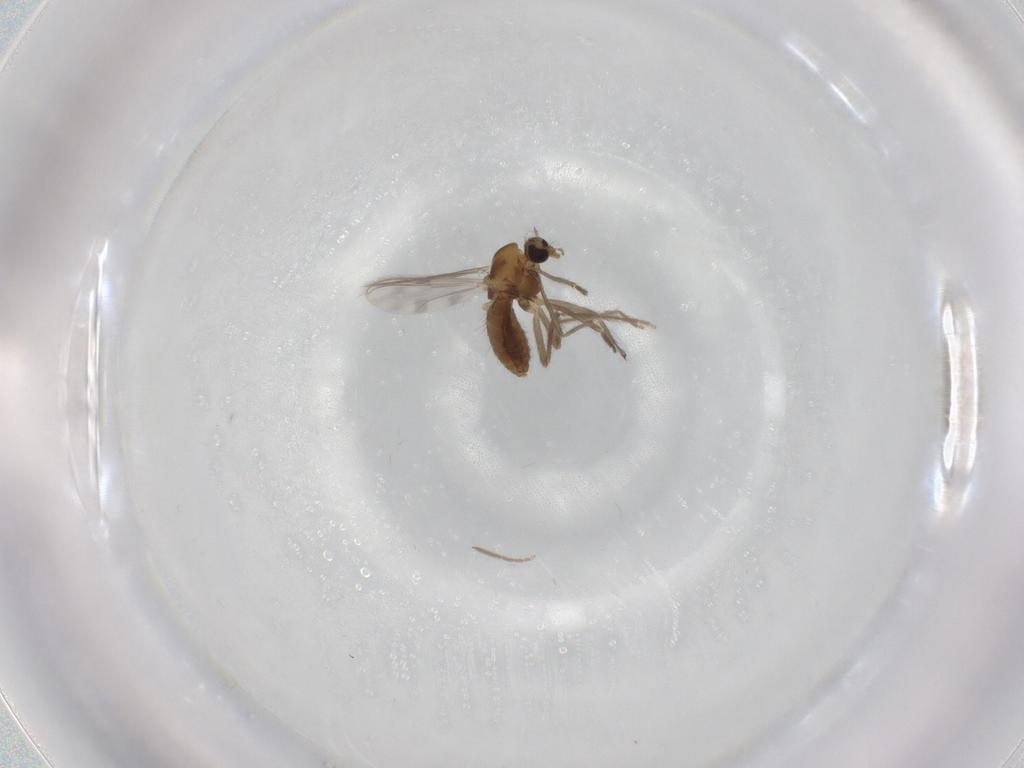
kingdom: Animalia
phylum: Arthropoda
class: Insecta
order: Diptera
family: Chironomidae
